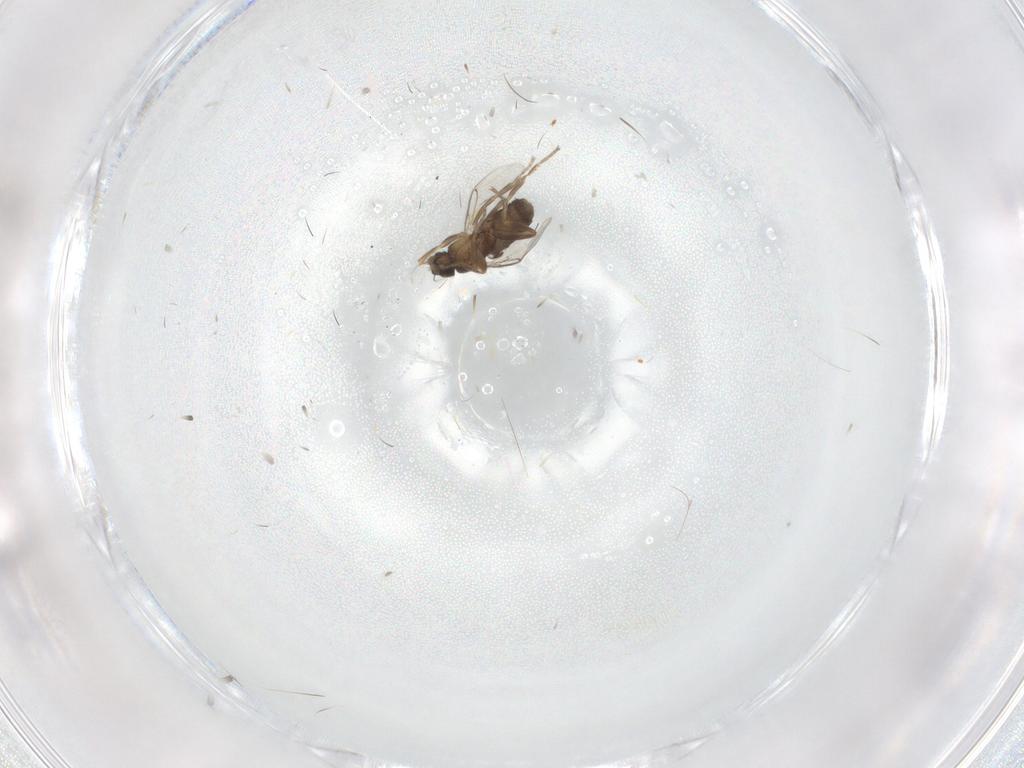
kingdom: Animalia
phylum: Arthropoda
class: Insecta
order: Diptera
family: Phoridae
